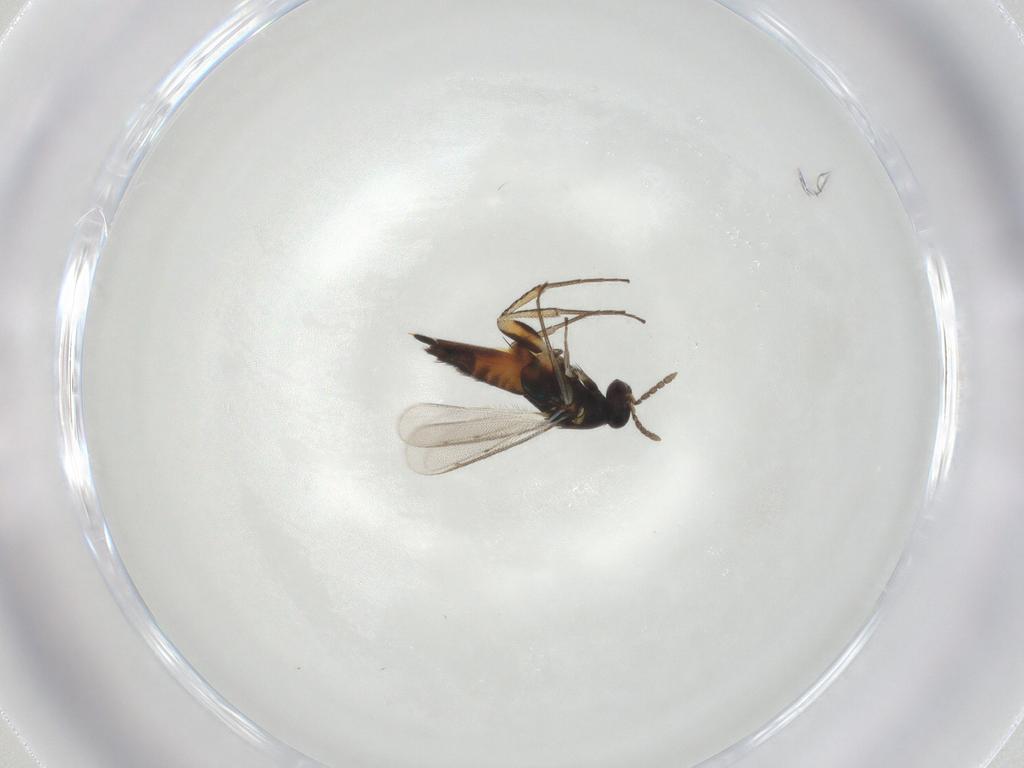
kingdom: Animalia
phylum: Arthropoda
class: Insecta
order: Hymenoptera
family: Eulophidae
